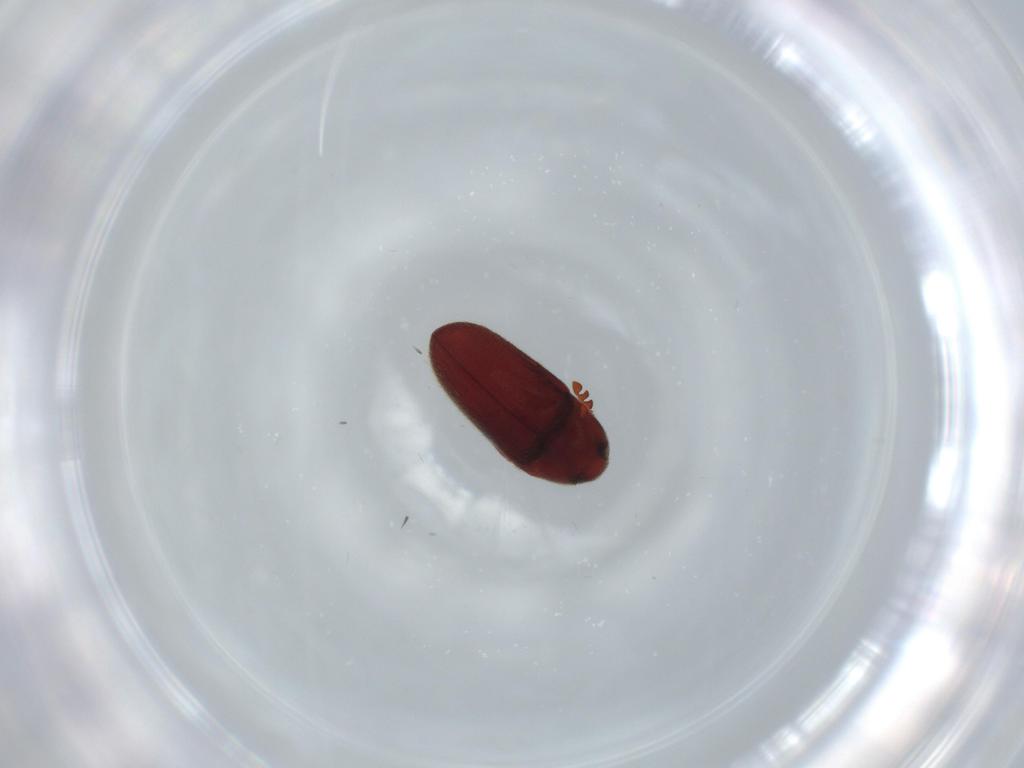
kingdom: Animalia
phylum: Arthropoda
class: Insecta
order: Coleoptera
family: Throscidae
